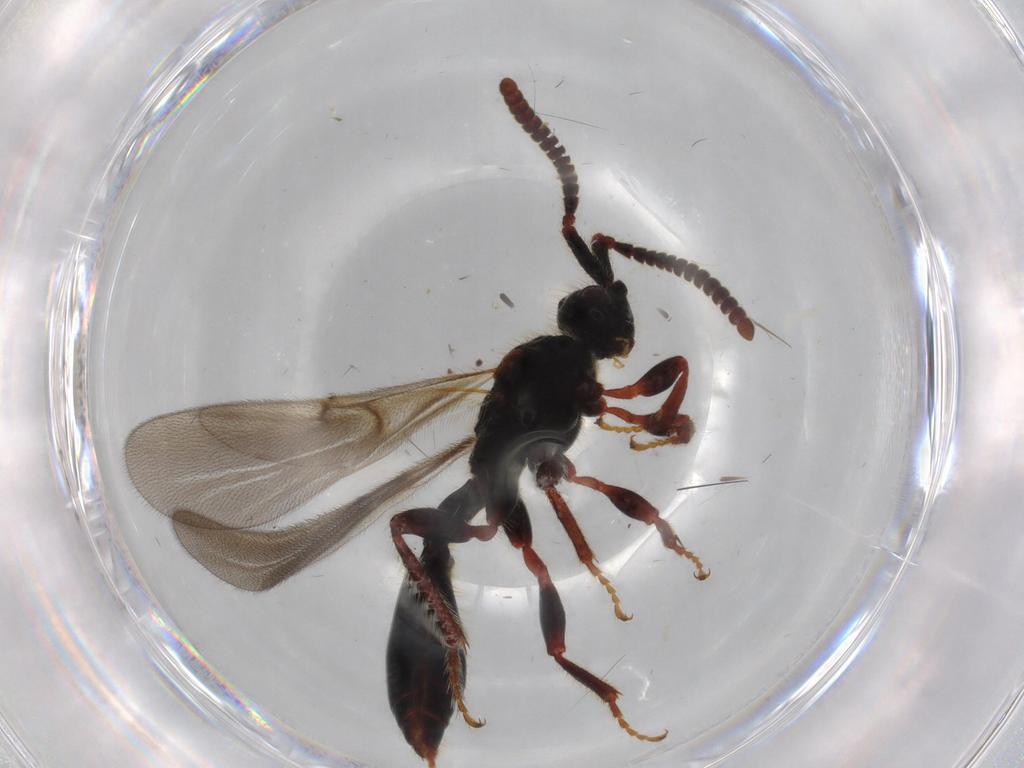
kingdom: Animalia
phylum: Arthropoda
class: Insecta
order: Hymenoptera
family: Diapriidae
